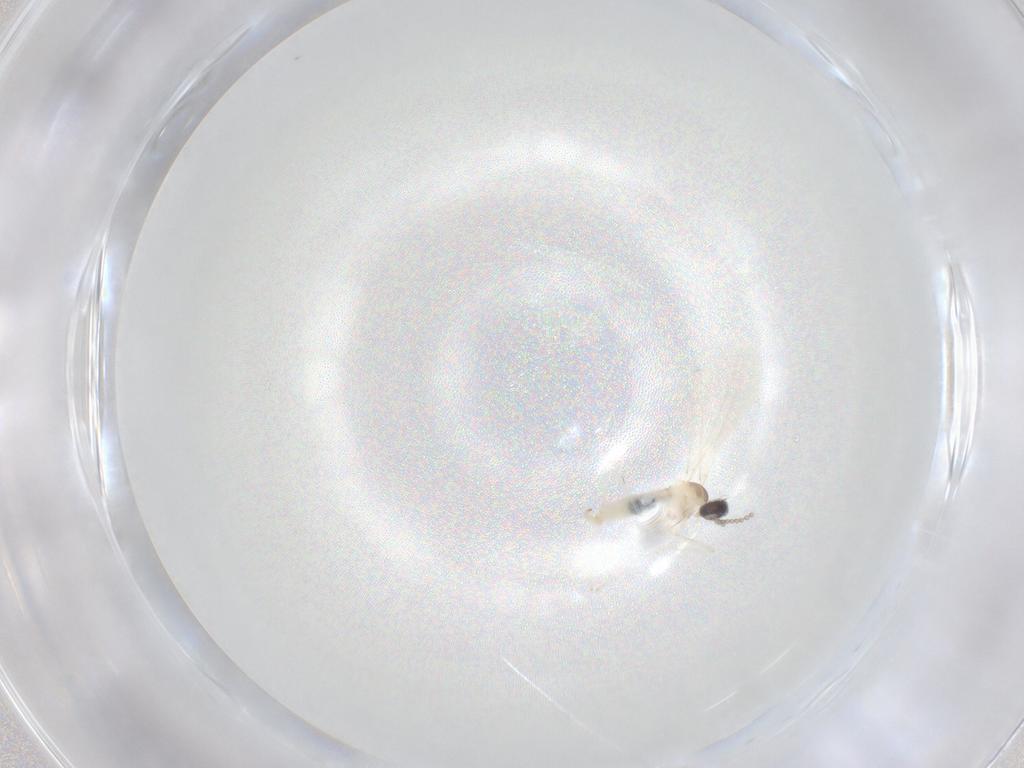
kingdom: Animalia
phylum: Arthropoda
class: Insecta
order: Diptera
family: Cecidomyiidae
